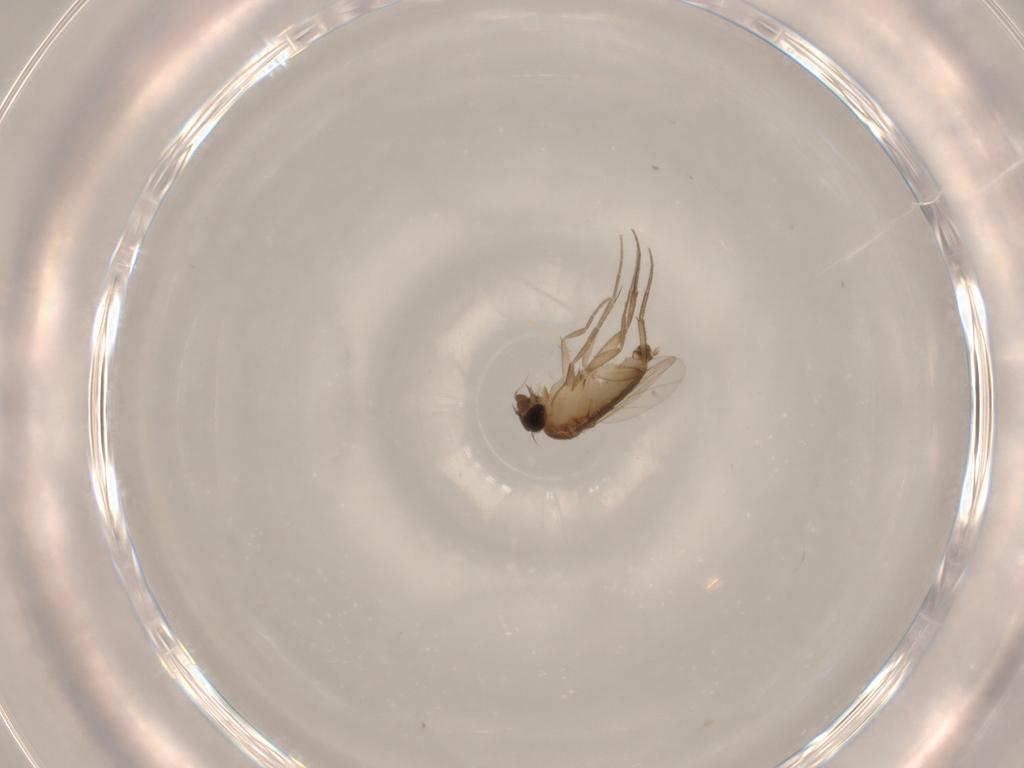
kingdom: Animalia
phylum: Arthropoda
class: Insecta
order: Diptera
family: Phoridae
